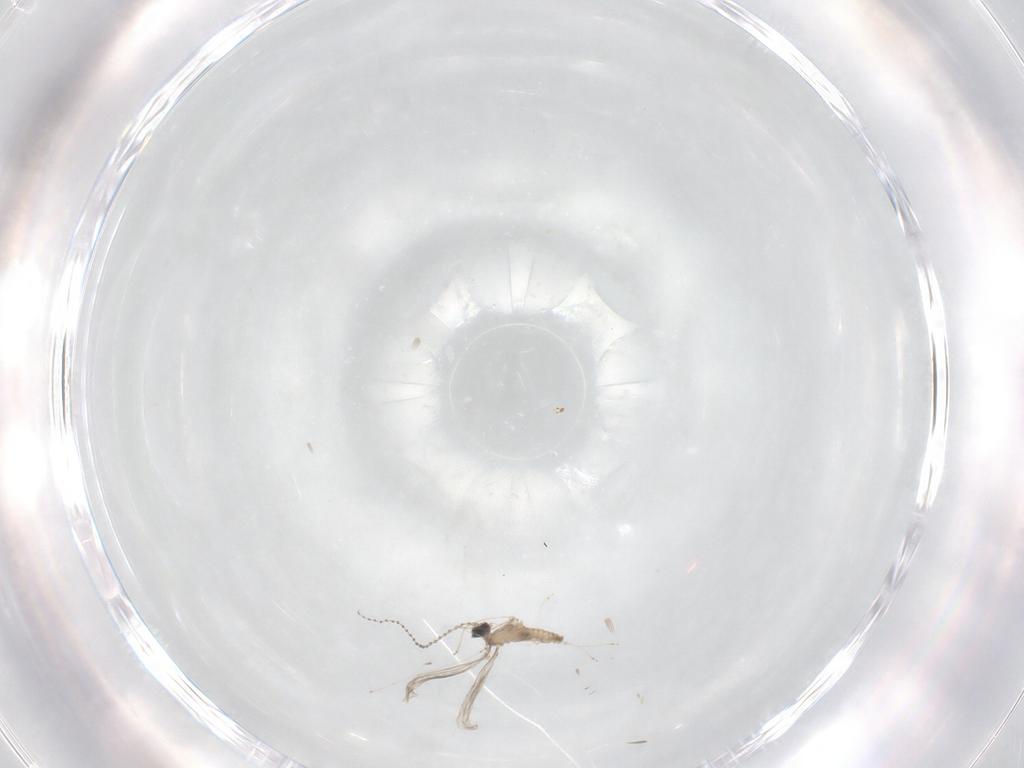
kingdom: Animalia
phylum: Arthropoda
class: Insecta
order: Diptera
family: Cecidomyiidae
